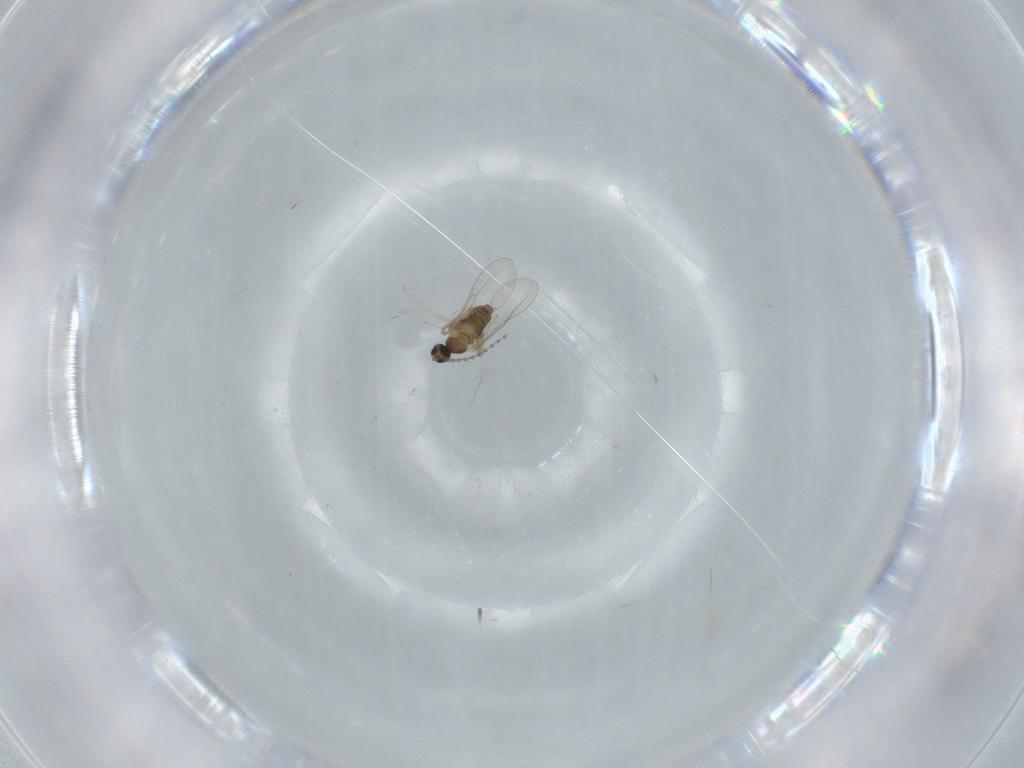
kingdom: Animalia
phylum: Arthropoda
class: Insecta
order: Diptera
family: Cecidomyiidae
